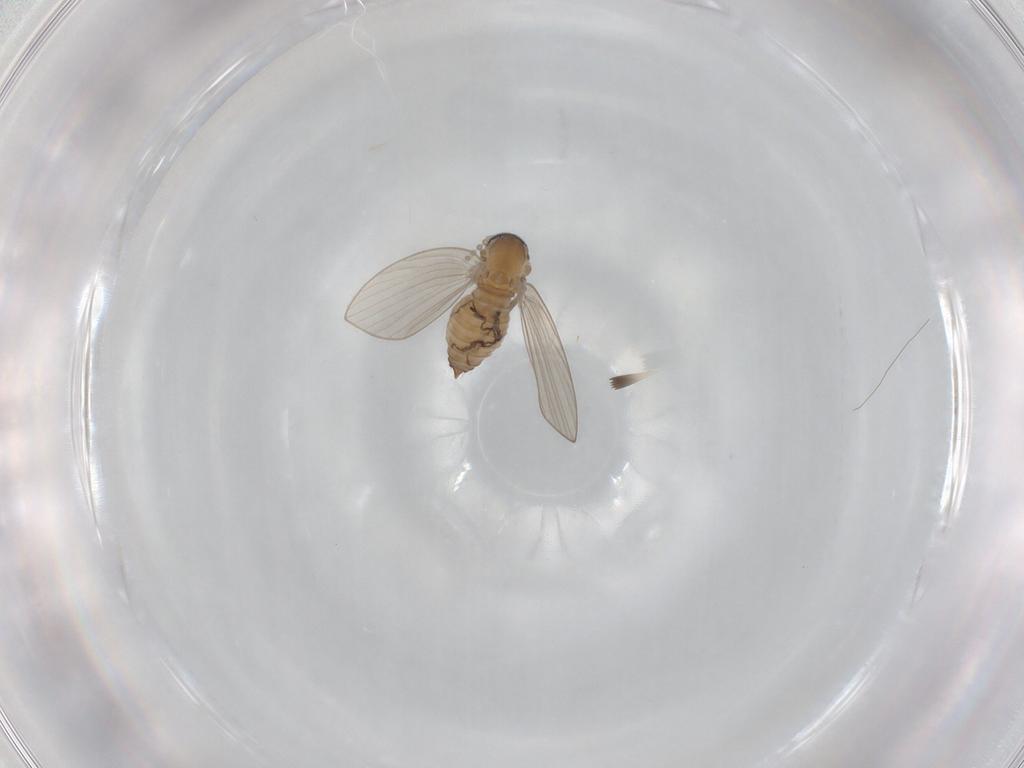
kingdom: Animalia
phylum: Arthropoda
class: Insecta
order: Diptera
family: Psychodidae
